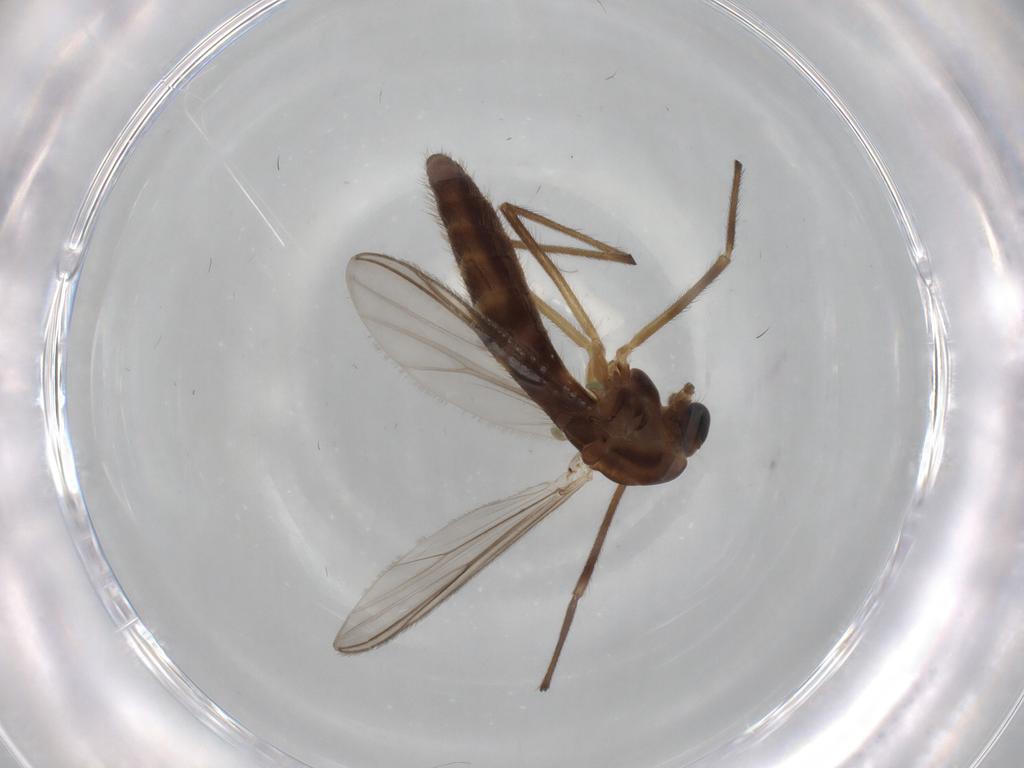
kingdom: Animalia
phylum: Arthropoda
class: Insecta
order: Diptera
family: Chironomidae
